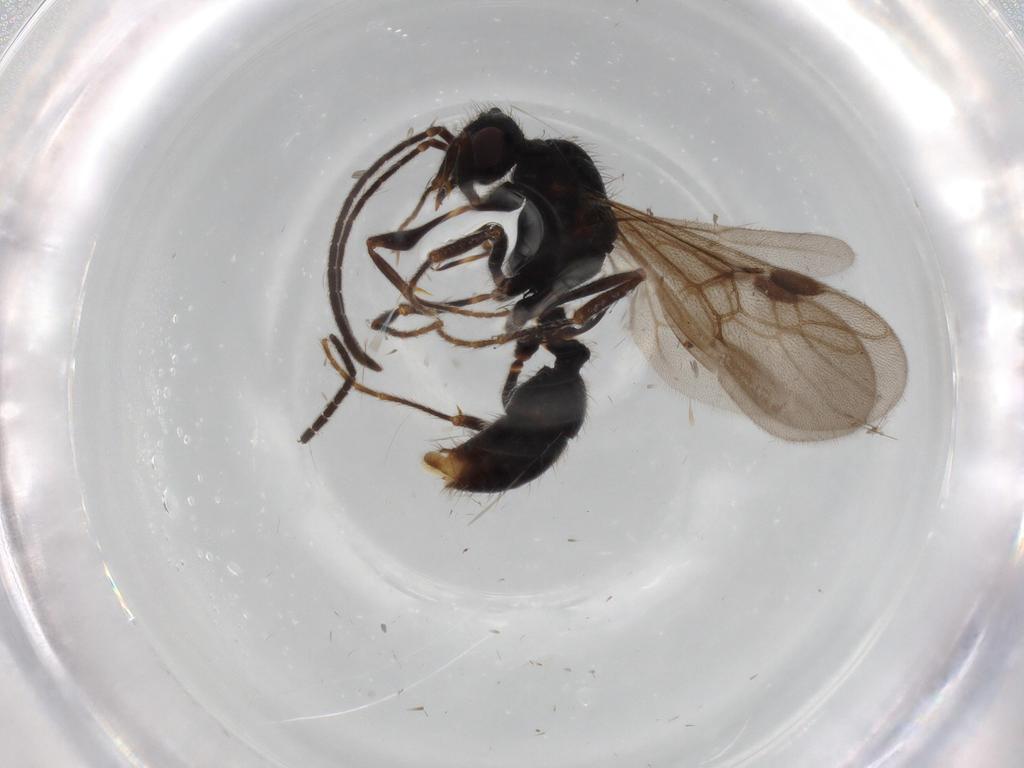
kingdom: Animalia
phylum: Arthropoda
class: Insecta
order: Hymenoptera
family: Formicidae
